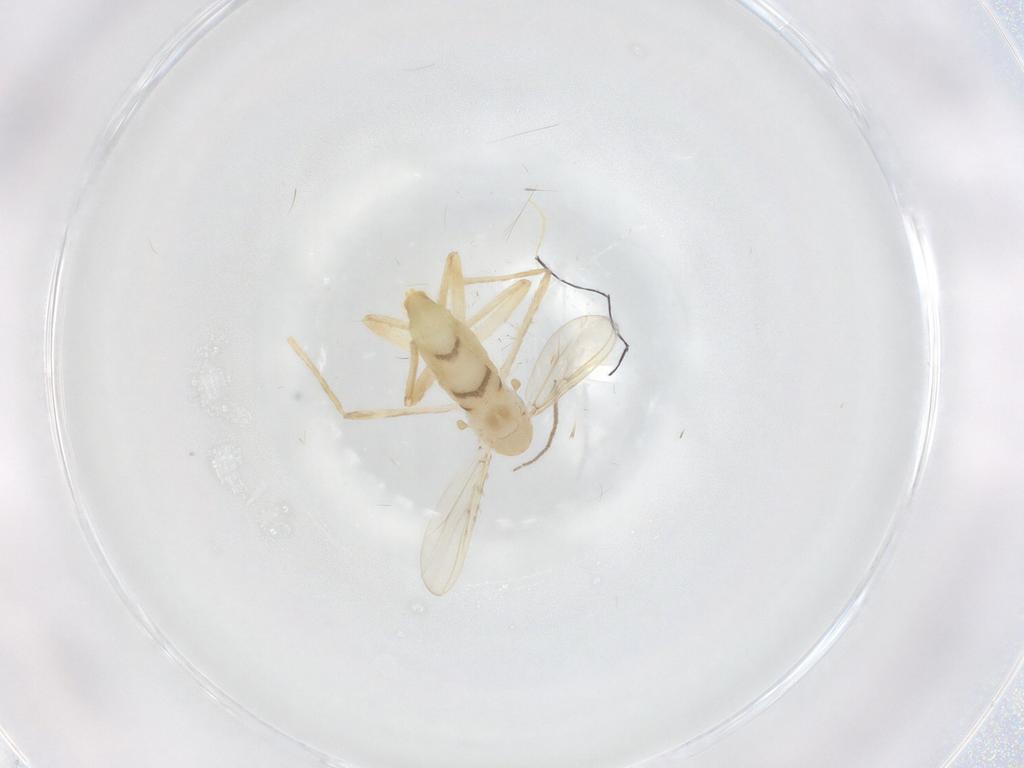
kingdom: Animalia
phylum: Arthropoda
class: Insecta
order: Diptera
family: Chironomidae
